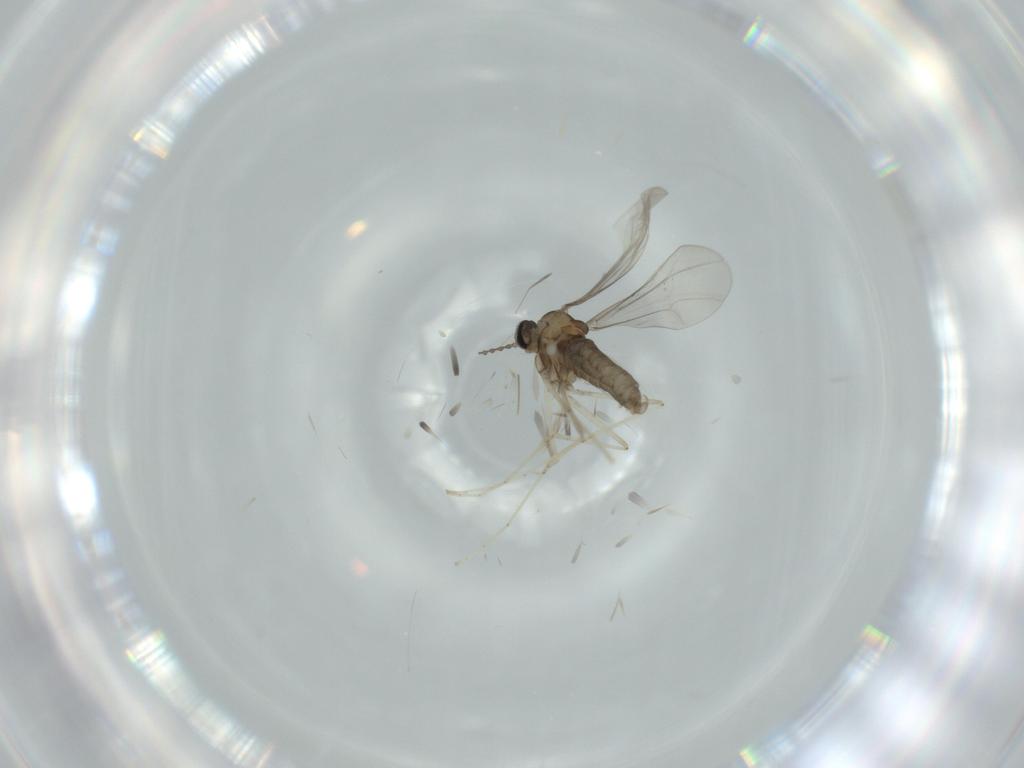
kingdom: Animalia
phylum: Arthropoda
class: Insecta
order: Diptera
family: Cecidomyiidae
